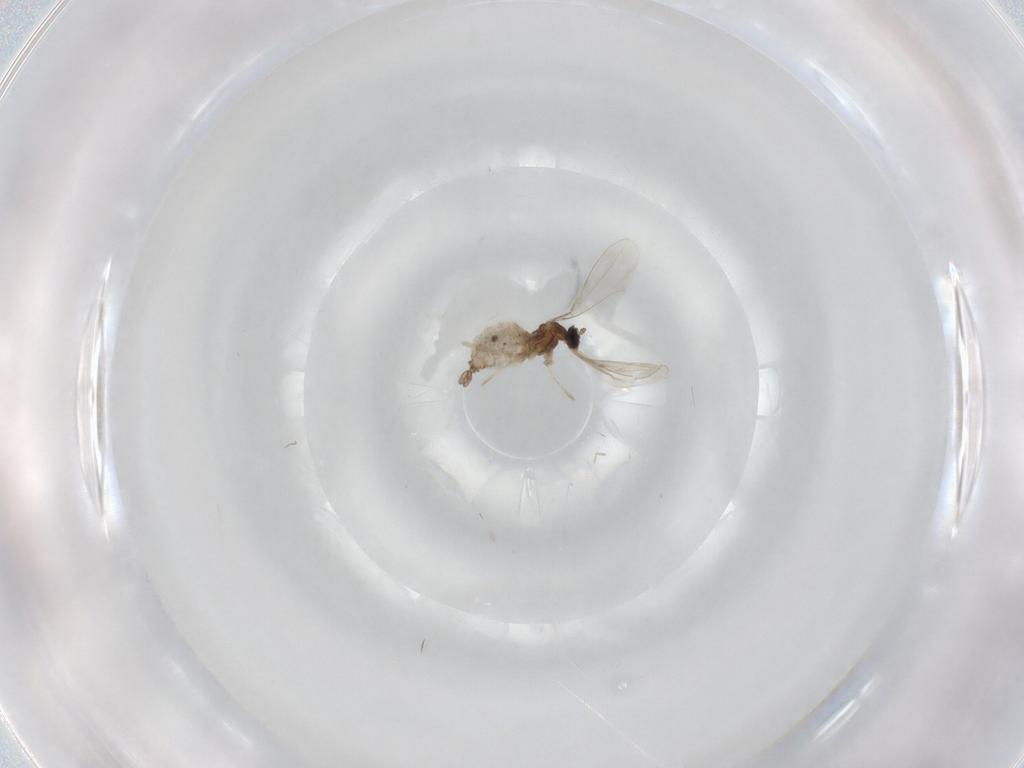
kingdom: Animalia
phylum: Arthropoda
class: Insecta
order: Diptera
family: Cecidomyiidae
